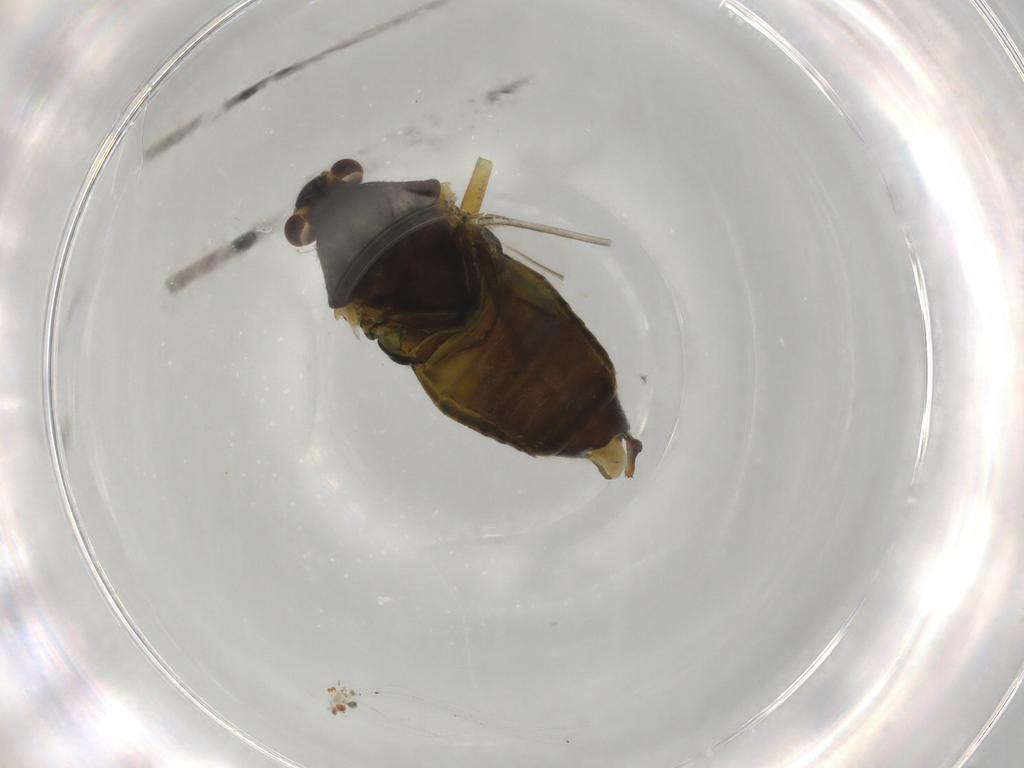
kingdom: Animalia
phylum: Arthropoda
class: Insecta
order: Hemiptera
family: Miridae
